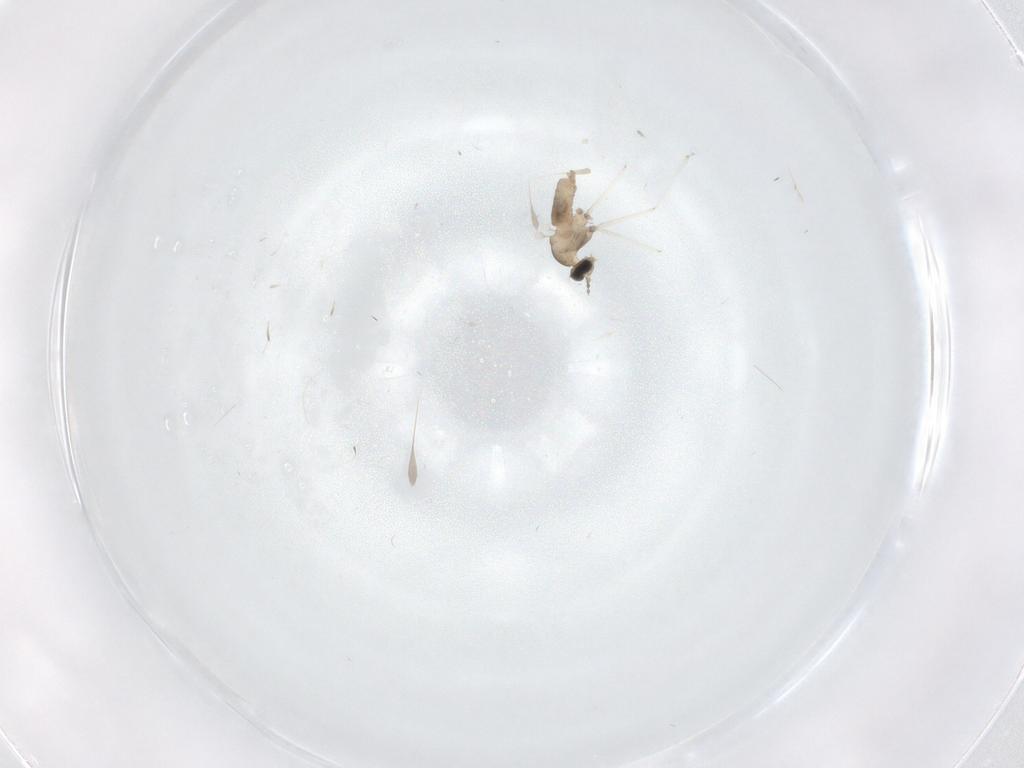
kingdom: Animalia
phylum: Arthropoda
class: Insecta
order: Diptera
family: Cecidomyiidae
